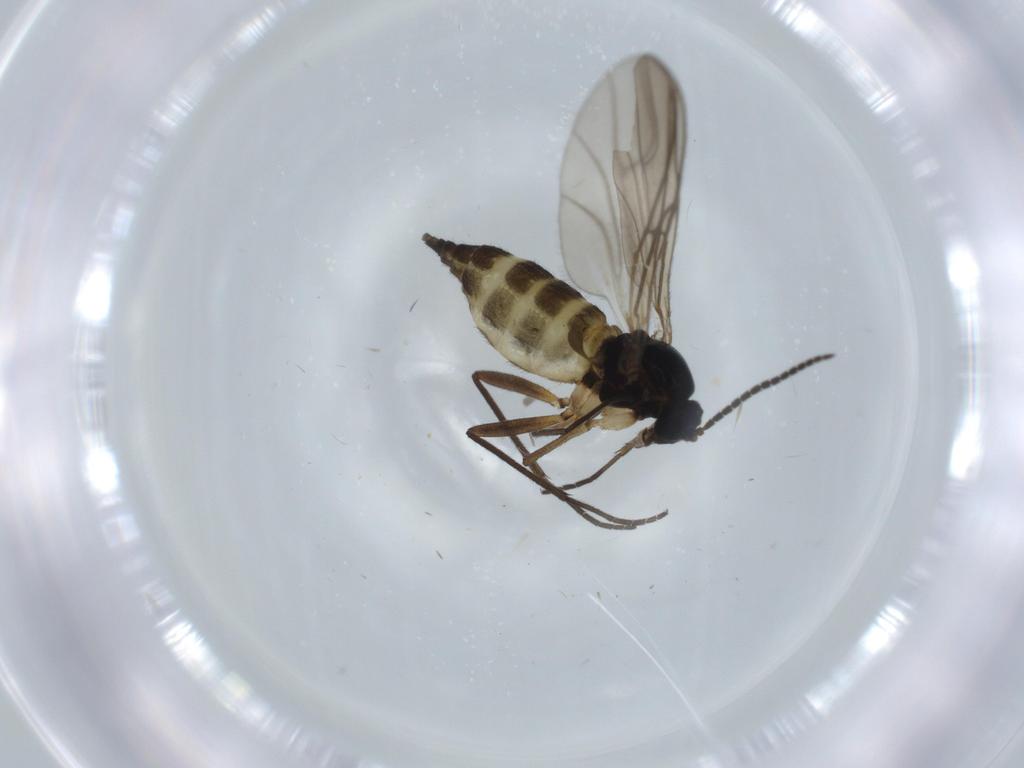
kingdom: Animalia
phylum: Arthropoda
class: Insecta
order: Diptera
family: Sciaridae
